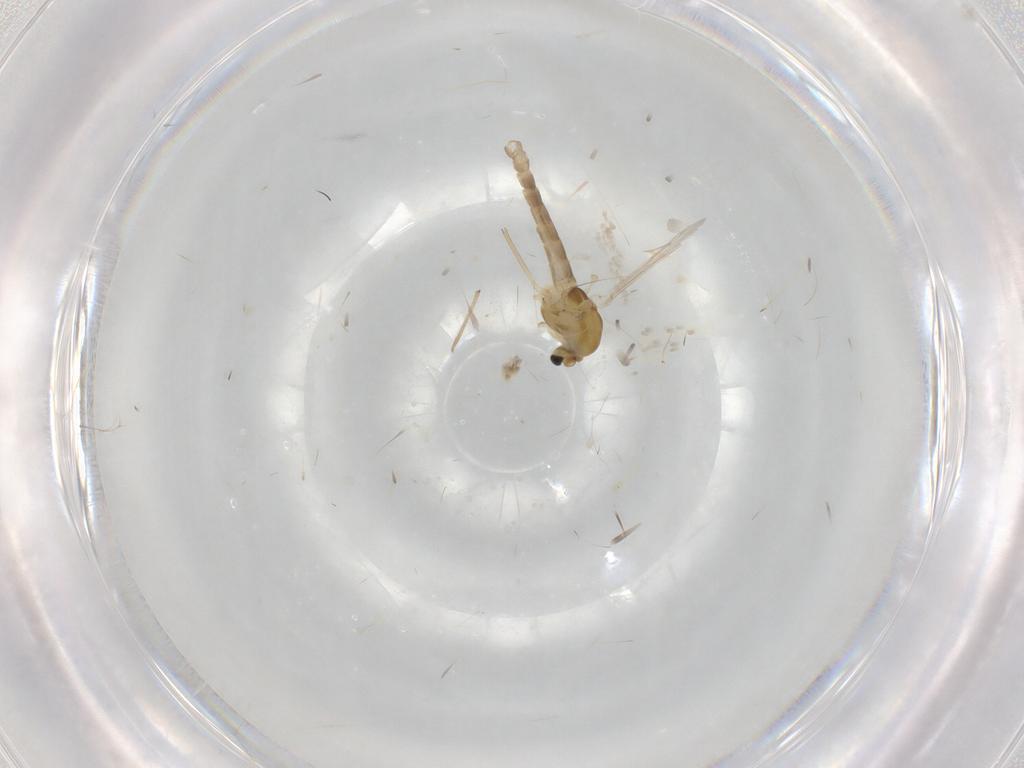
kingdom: Animalia
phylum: Arthropoda
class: Insecta
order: Diptera
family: Chironomidae
